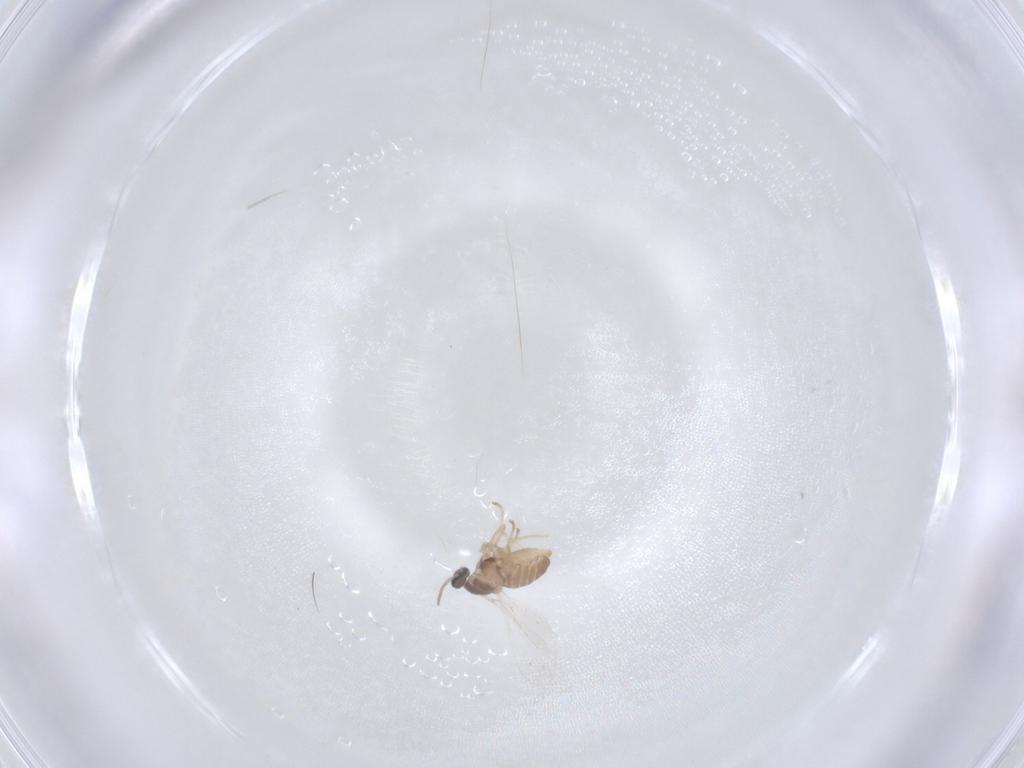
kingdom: Animalia
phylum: Arthropoda
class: Insecta
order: Diptera
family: Cecidomyiidae
